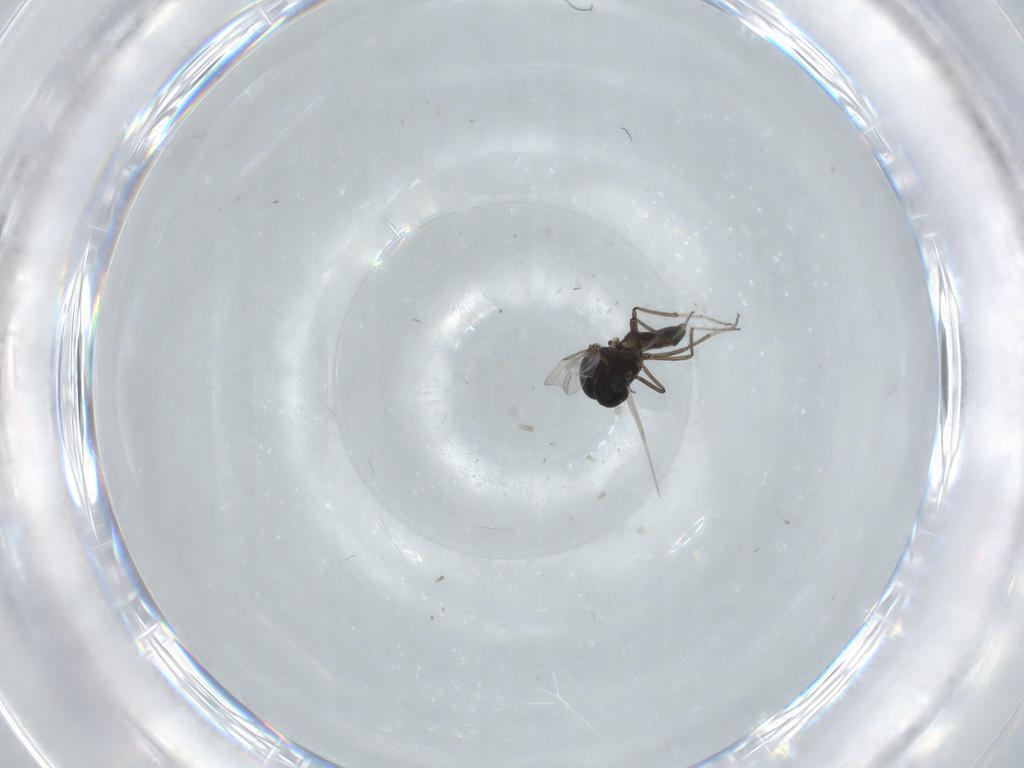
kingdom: Animalia
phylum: Arthropoda
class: Insecta
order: Diptera
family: Ceratopogonidae
